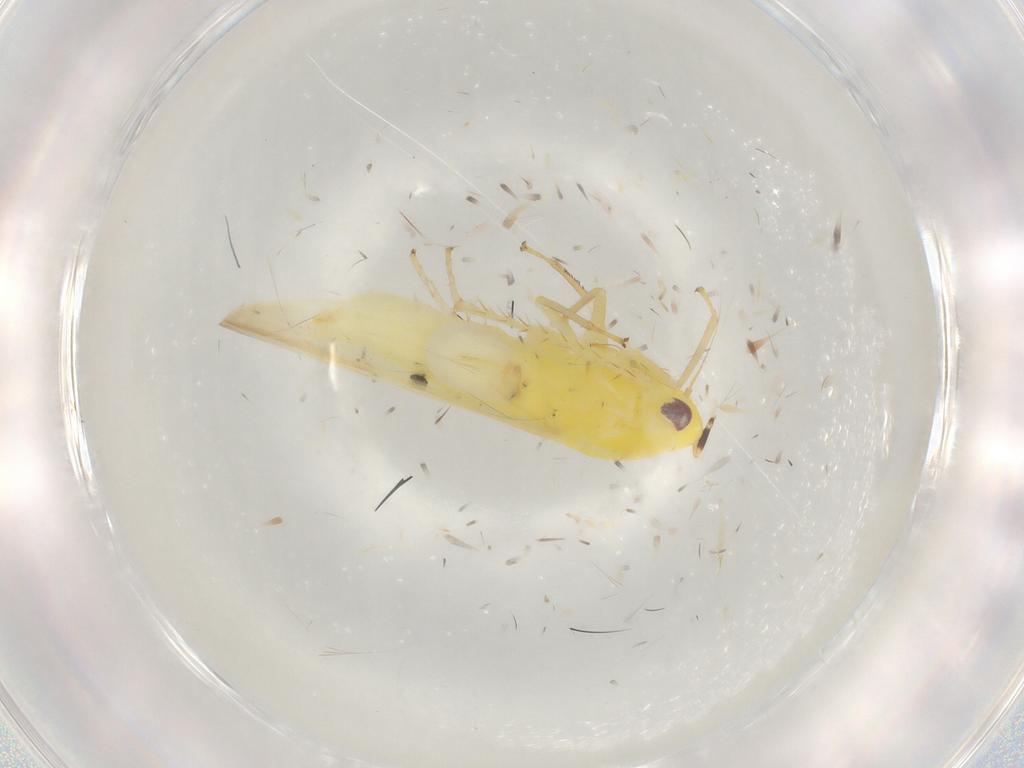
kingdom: Animalia
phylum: Arthropoda
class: Insecta
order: Hemiptera
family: Cicadellidae
